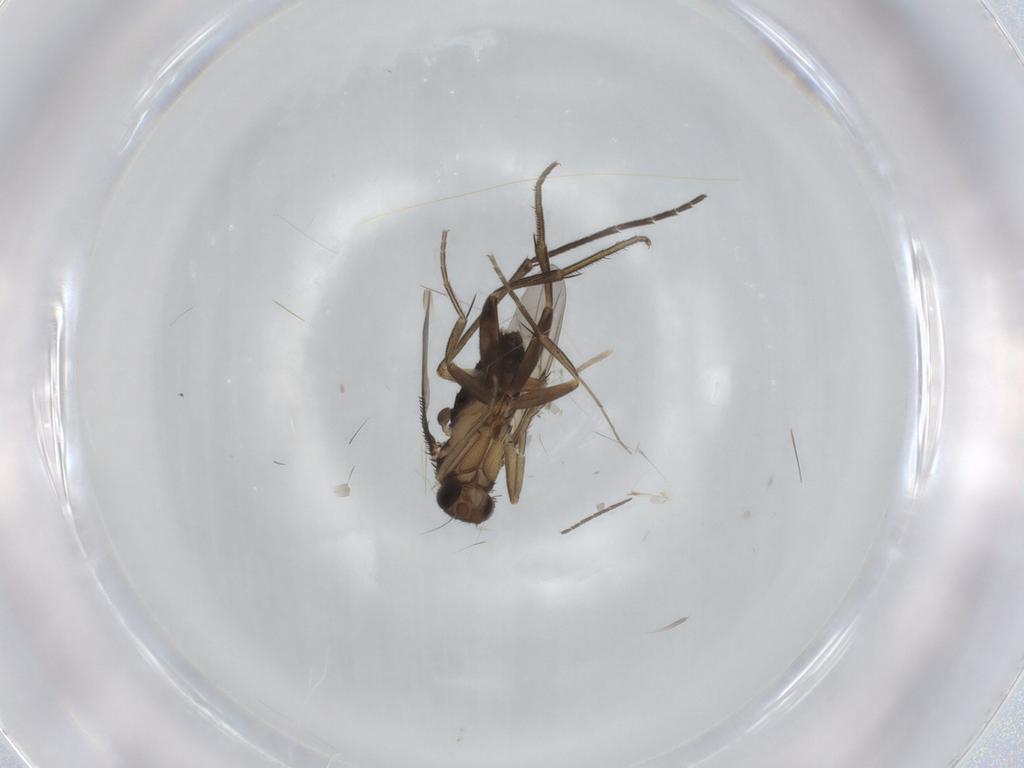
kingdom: Animalia
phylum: Arthropoda
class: Insecta
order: Diptera
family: Phoridae
